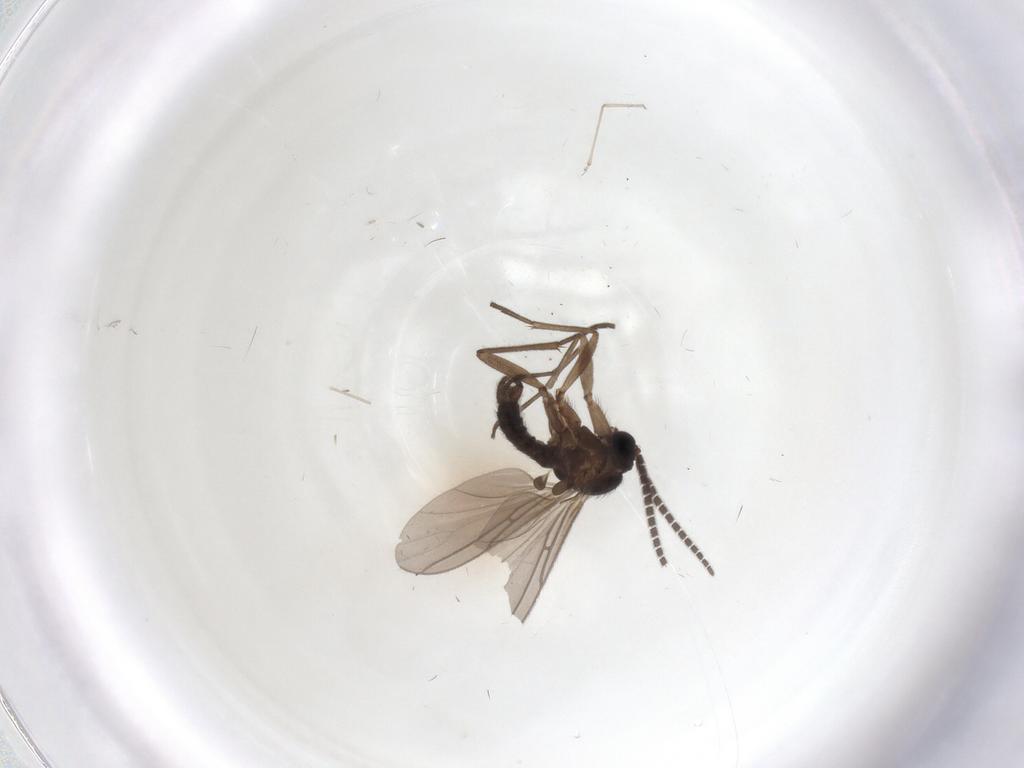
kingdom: Animalia
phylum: Arthropoda
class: Insecta
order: Diptera
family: Sciaridae
